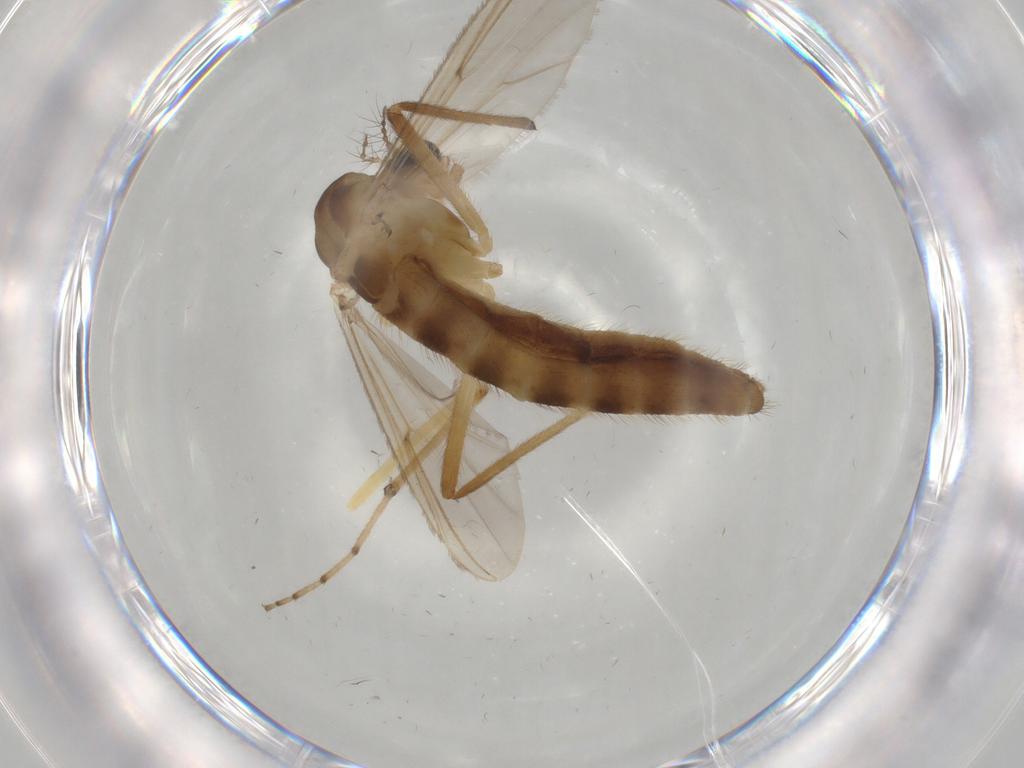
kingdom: Animalia
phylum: Arthropoda
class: Insecta
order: Diptera
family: Chironomidae
